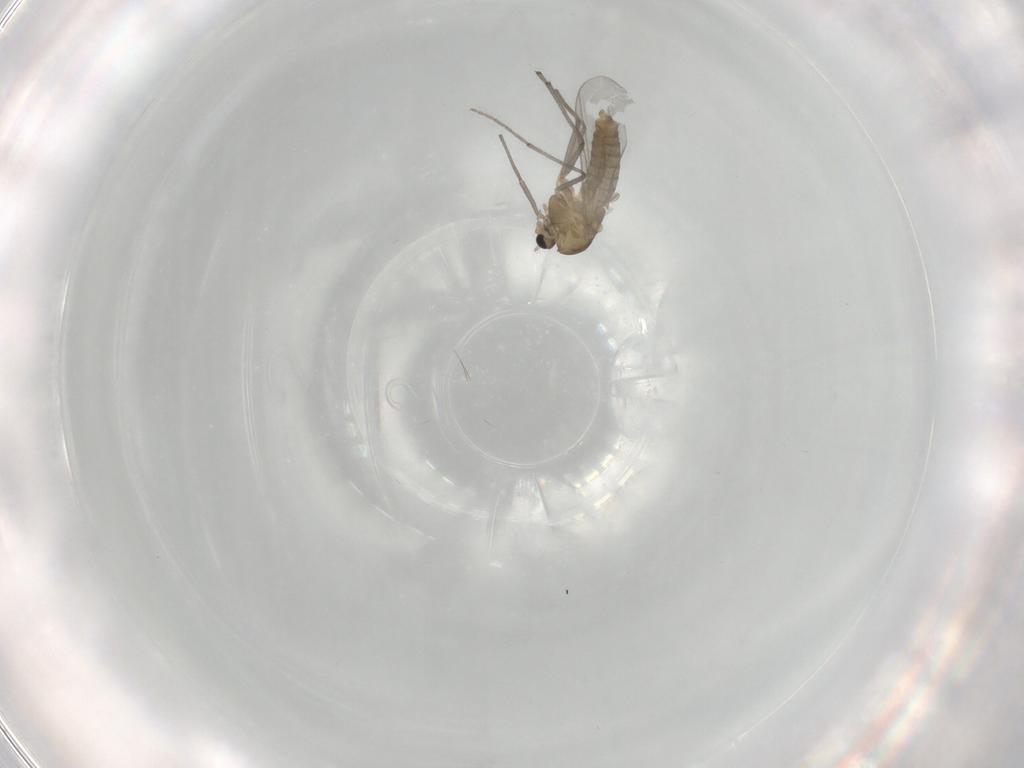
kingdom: Animalia
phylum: Arthropoda
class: Insecta
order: Diptera
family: Chironomidae
